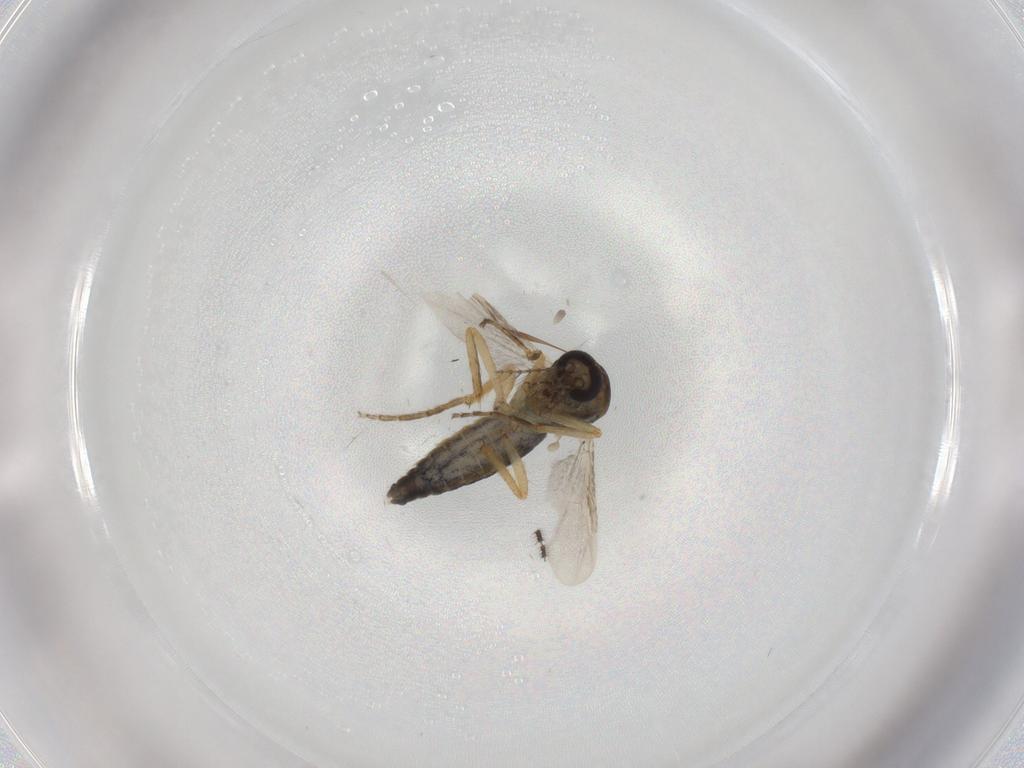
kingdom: Animalia
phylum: Arthropoda
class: Insecta
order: Diptera
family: Ceratopogonidae
